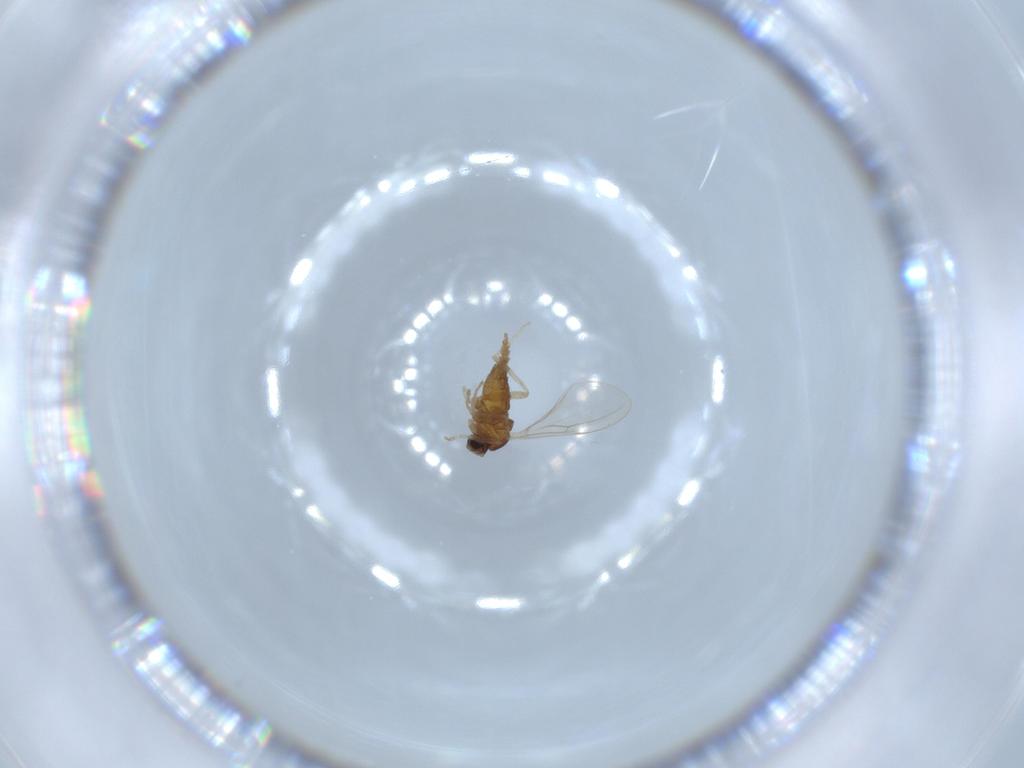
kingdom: Animalia
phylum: Arthropoda
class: Insecta
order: Diptera
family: Cecidomyiidae
